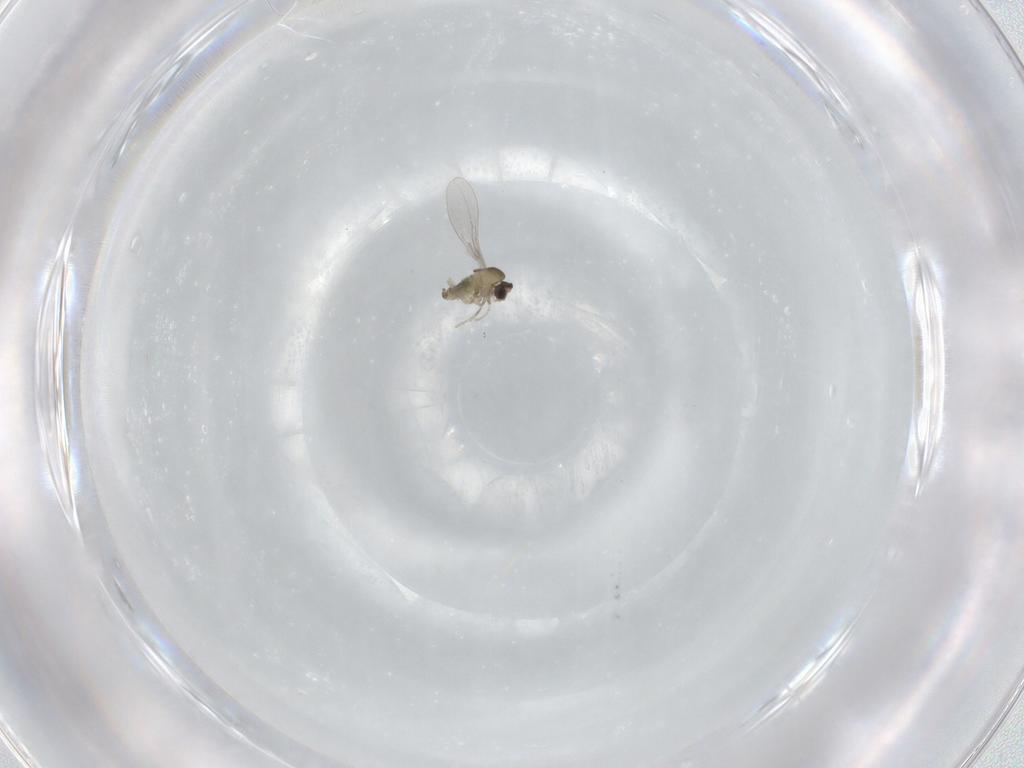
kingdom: Animalia
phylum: Arthropoda
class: Insecta
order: Diptera
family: Cecidomyiidae
